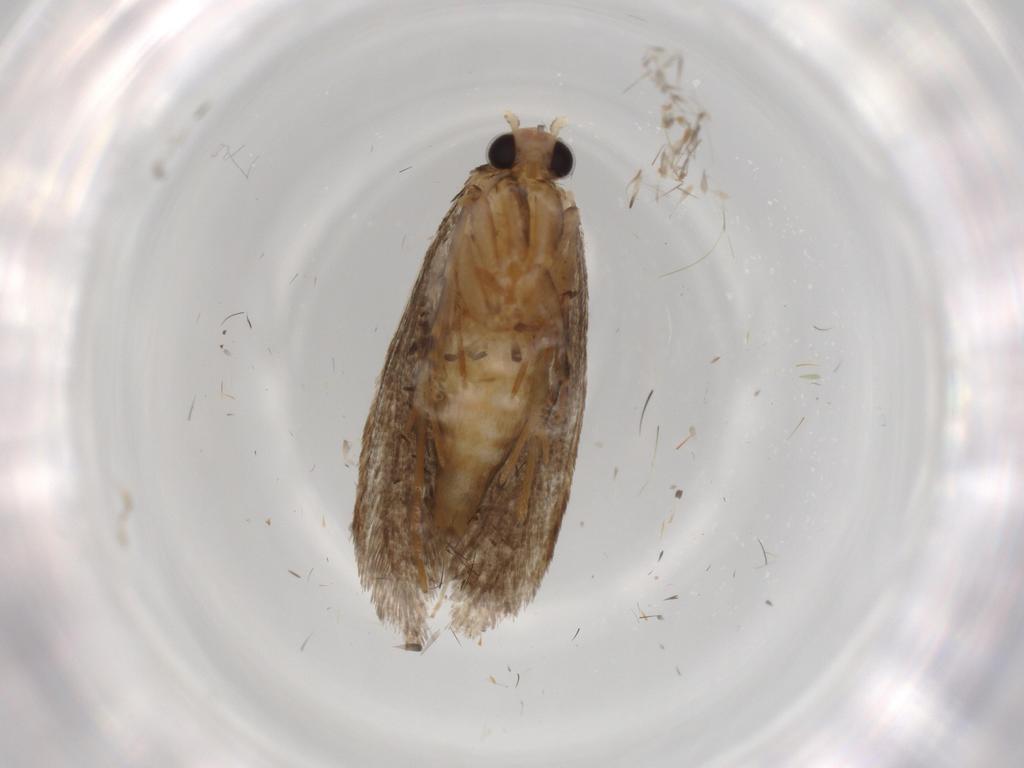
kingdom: Animalia
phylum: Arthropoda
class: Insecta
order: Lepidoptera
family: Tineidae
